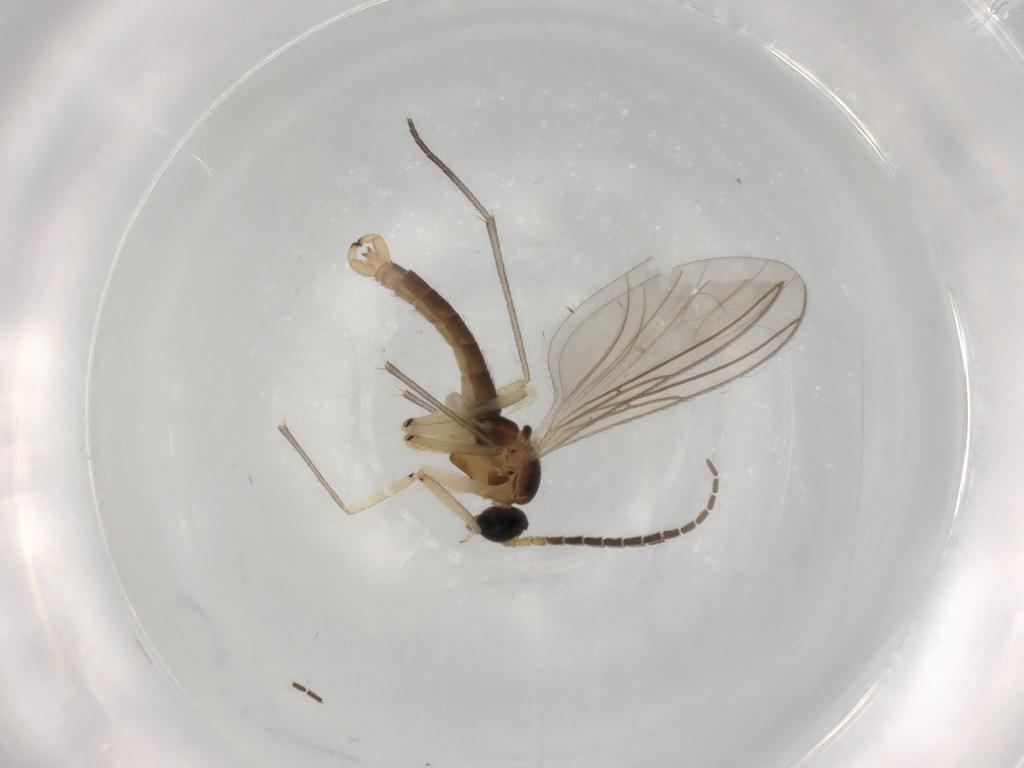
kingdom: Animalia
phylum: Arthropoda
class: Insecta
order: Diptera
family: Sciaridae
